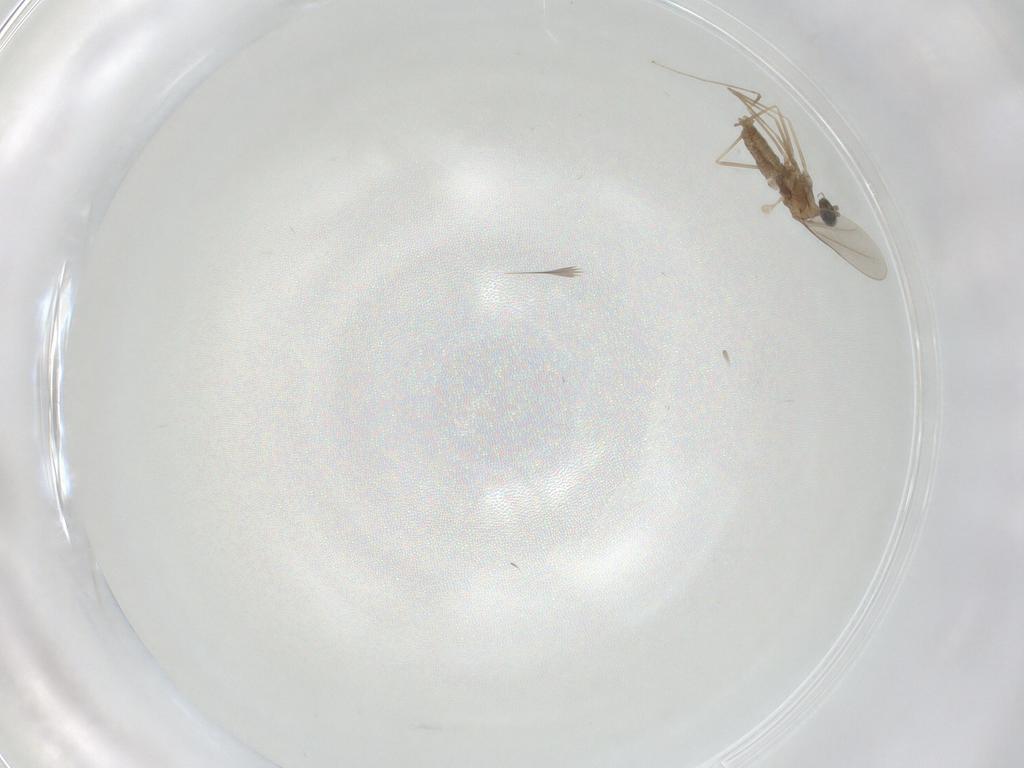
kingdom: Animalia
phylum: Arthropoda
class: Insecta
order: Diptera
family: Cecidomyiidae
